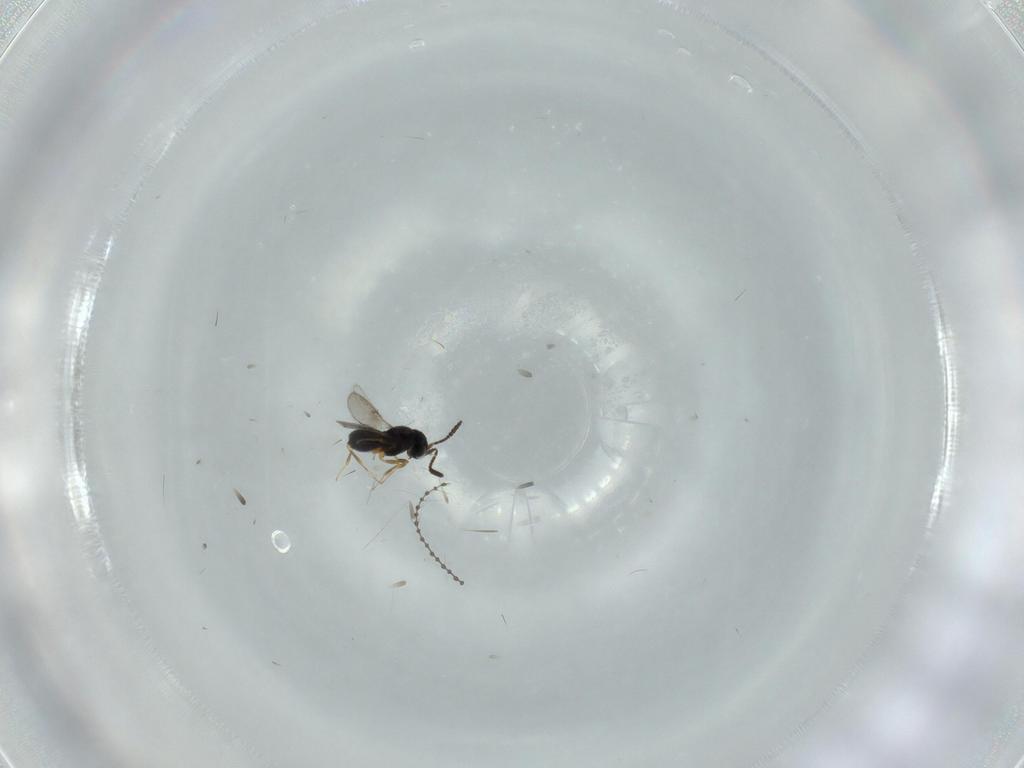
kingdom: Animalia
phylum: Arthropoda
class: Insecta
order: Hymenoptera
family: Scelionidae
